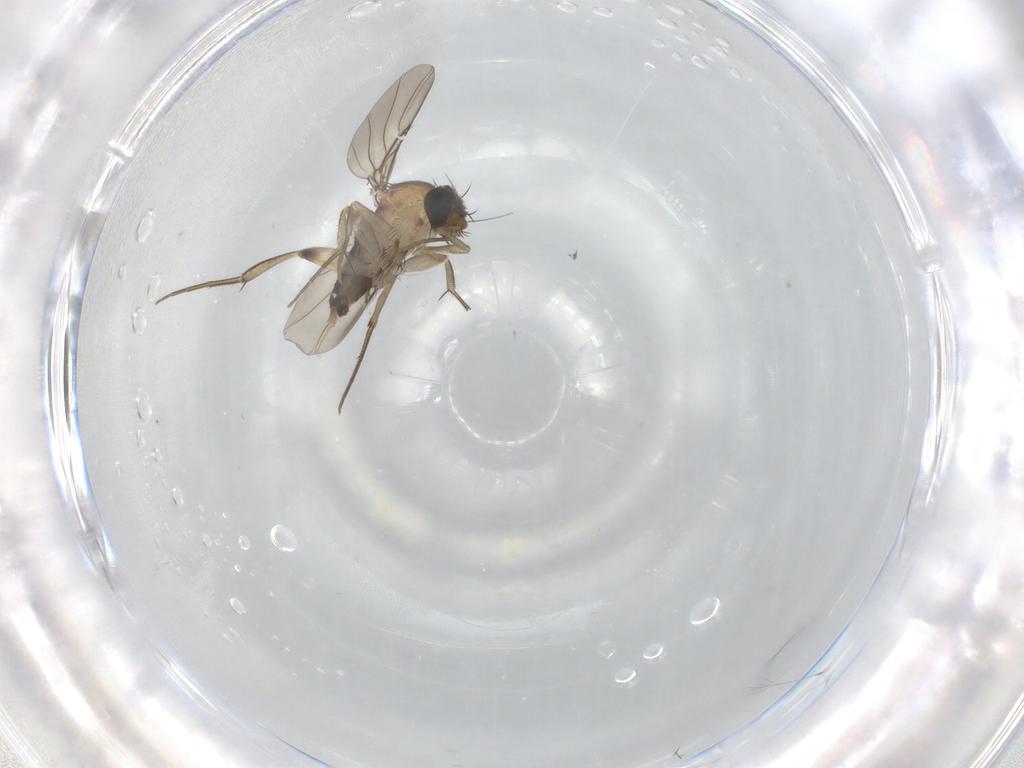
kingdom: Animalia
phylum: Arthropoda
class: Insecta
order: Diptera
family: Phoridae
